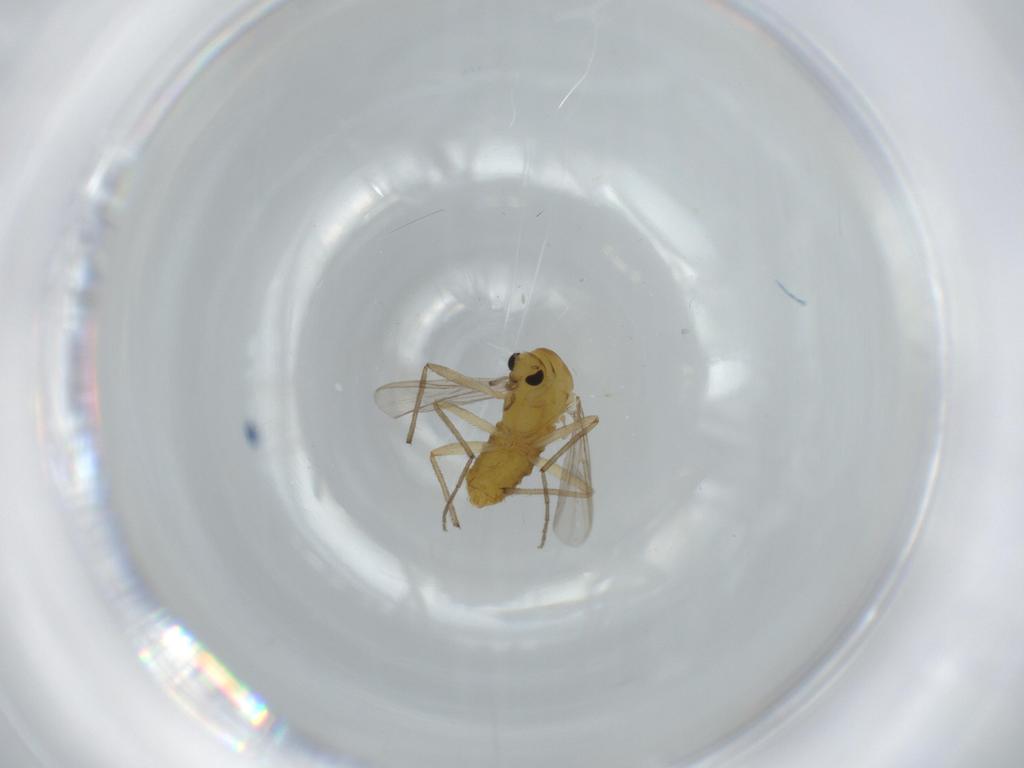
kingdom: Animalia
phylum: Arthropoda
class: Insecta
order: Diptera
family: Chironomidae
